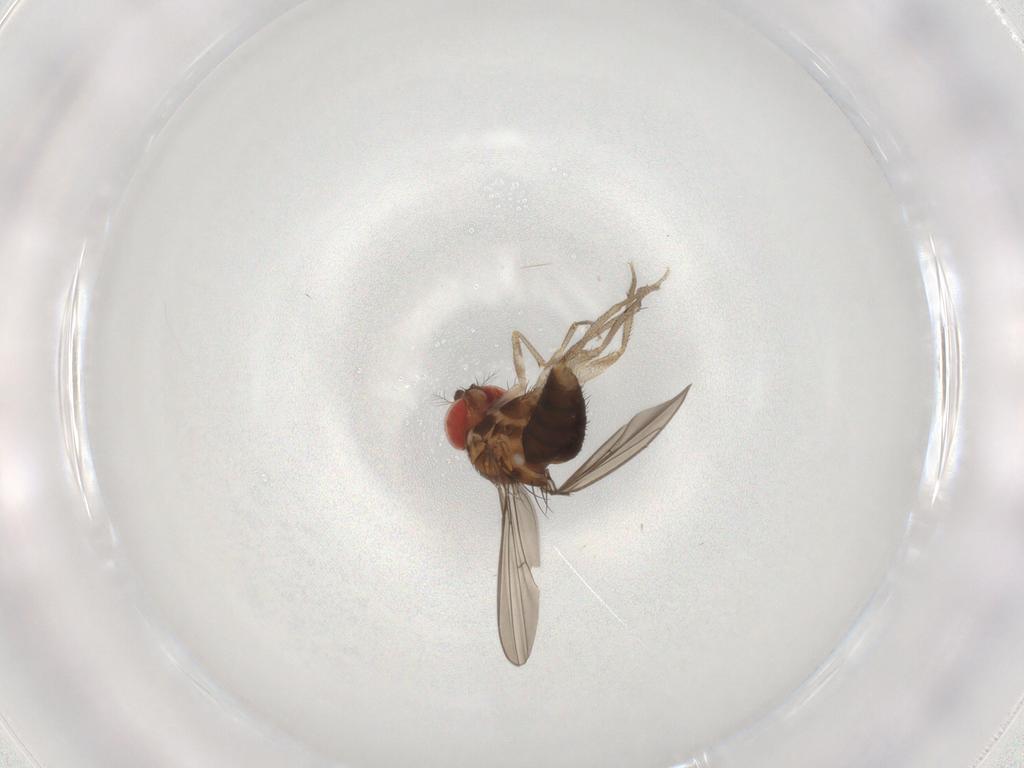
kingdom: Animalia
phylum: Arthropoda
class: Insecta
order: Diptera
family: Drosophilidae
